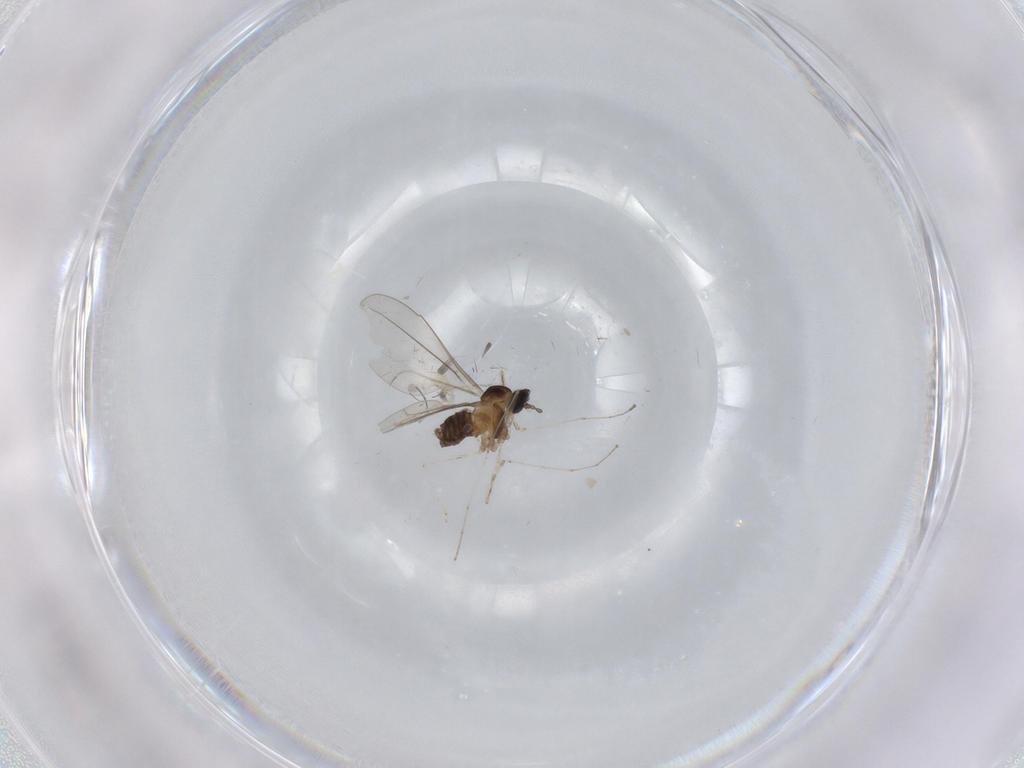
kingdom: Animalia
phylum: Arthropoda
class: Insecta
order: Diptera
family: Cecidomyiidae
